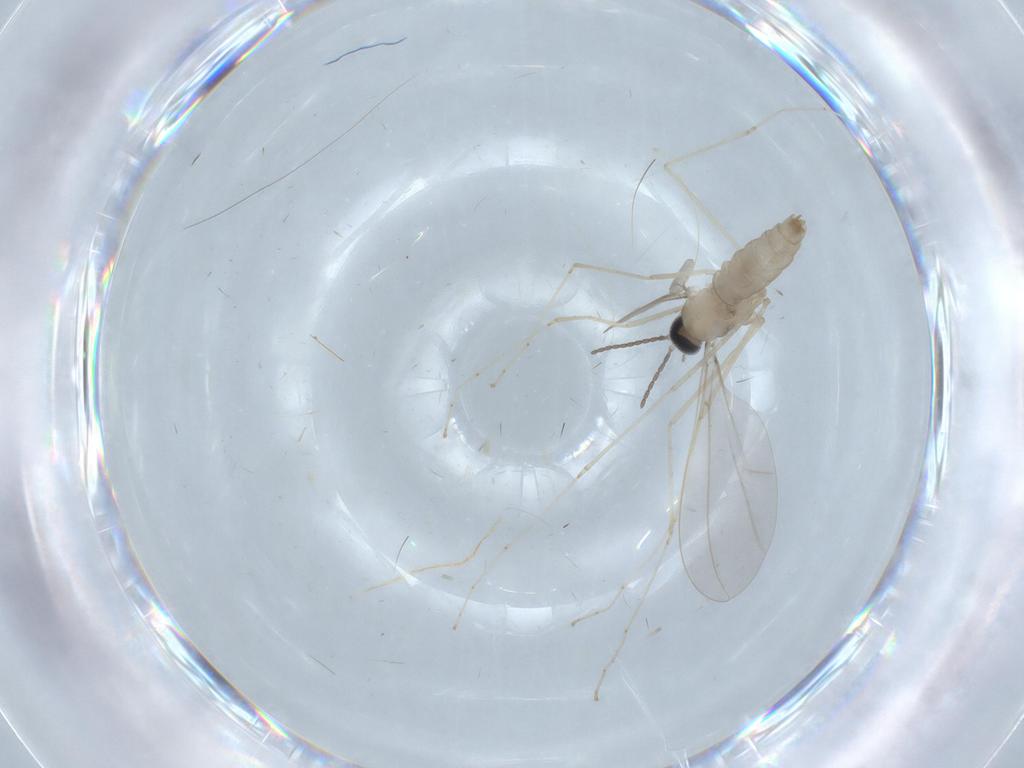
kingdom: Animalia
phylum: Arthropoda
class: Insecta
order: Diptera
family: Cecidomyiidae
